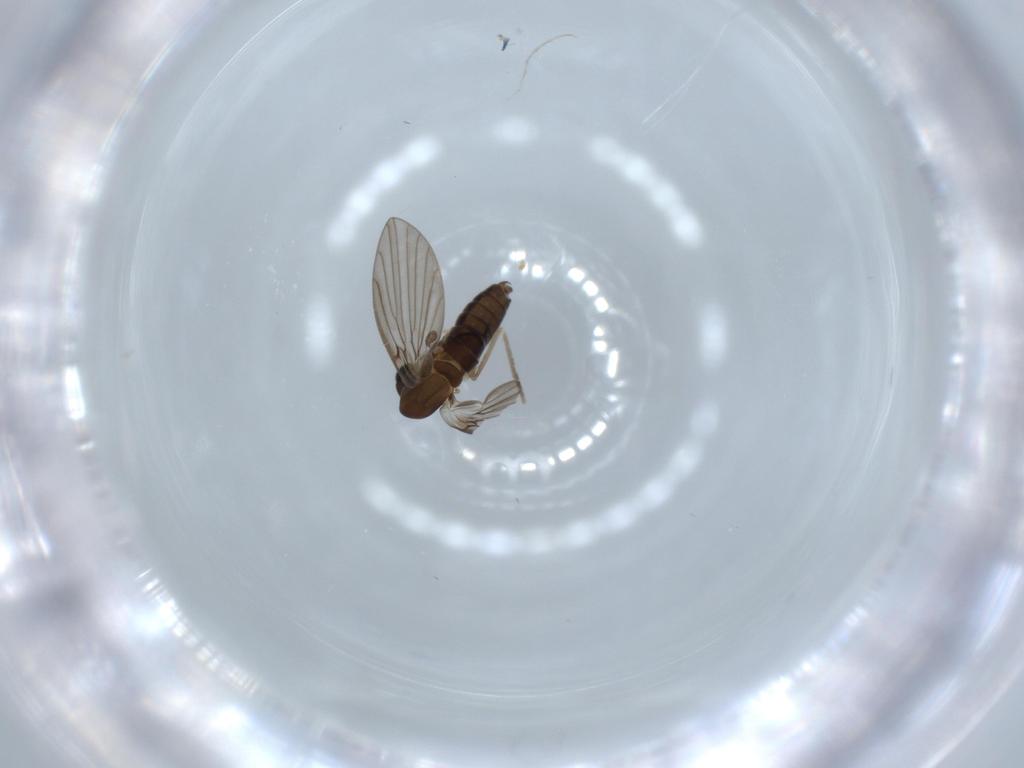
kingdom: Animalia
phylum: Arthropoda
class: Insecta
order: Diptera
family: Psychodidae
